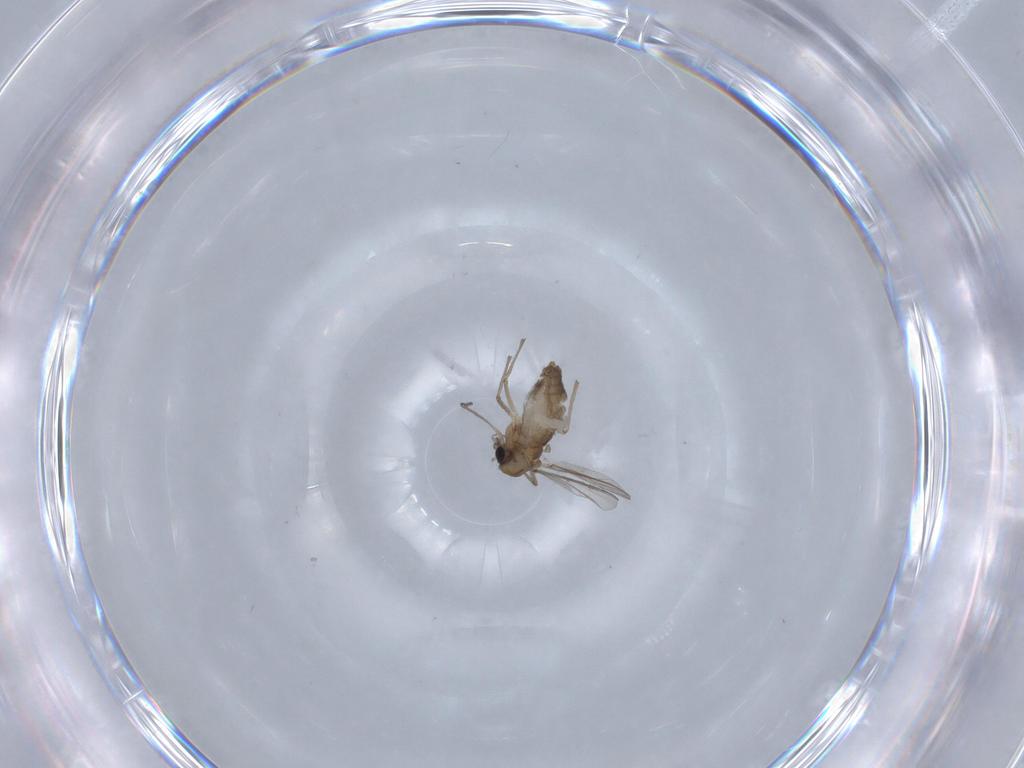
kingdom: Animalia
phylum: Arthropoda
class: Insecta
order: Diptera
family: Chironomidae
